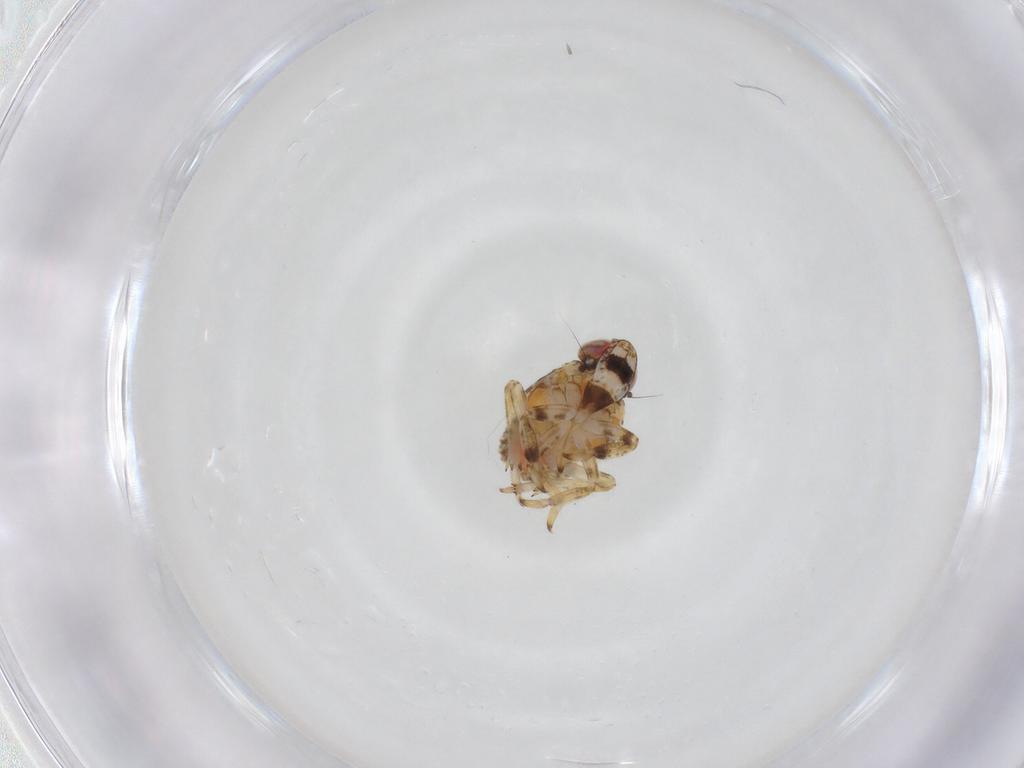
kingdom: Animalia
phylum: Arthropoda
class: Insecta
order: Hemiptera
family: Issidae
